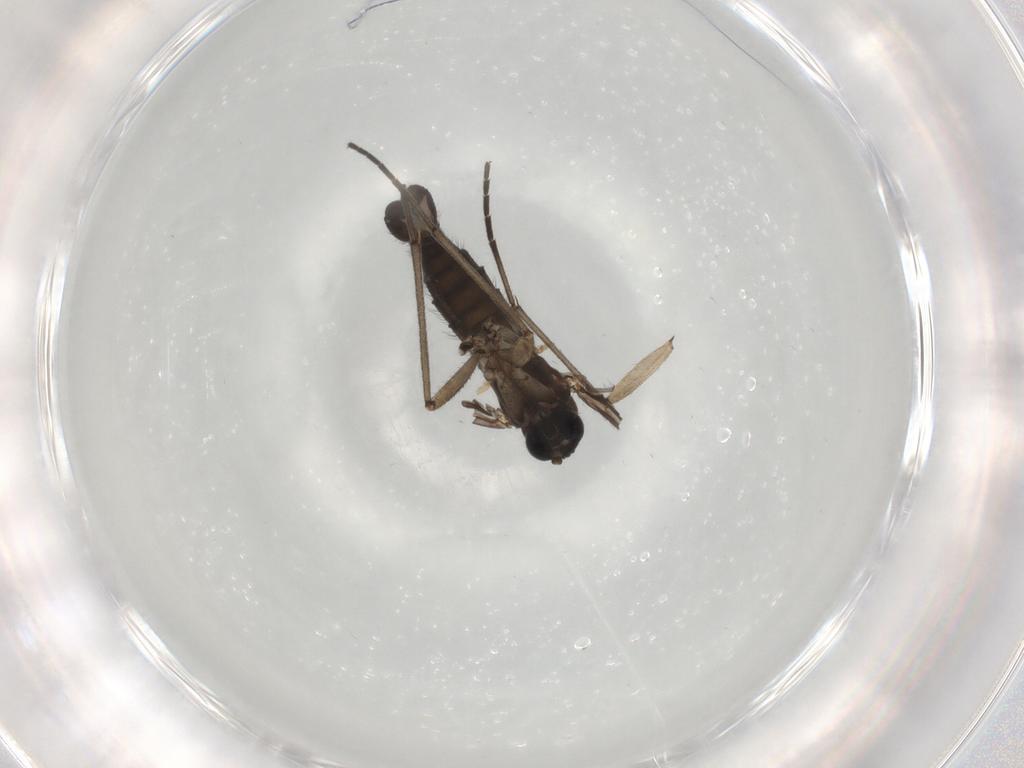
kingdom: Animalia
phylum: Arthropoda
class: Insecta
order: Diptera
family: Sciaridae
